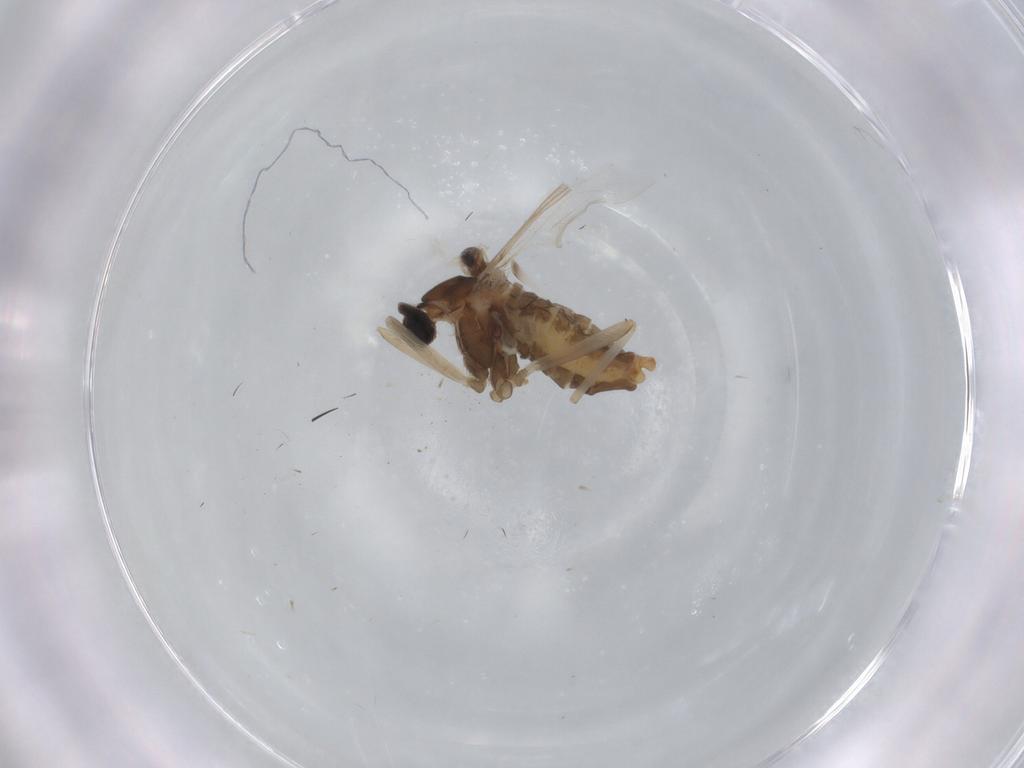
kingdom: Animalia
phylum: Arthropoda
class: Insecta
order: Diptera
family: Cecidomyiidae
